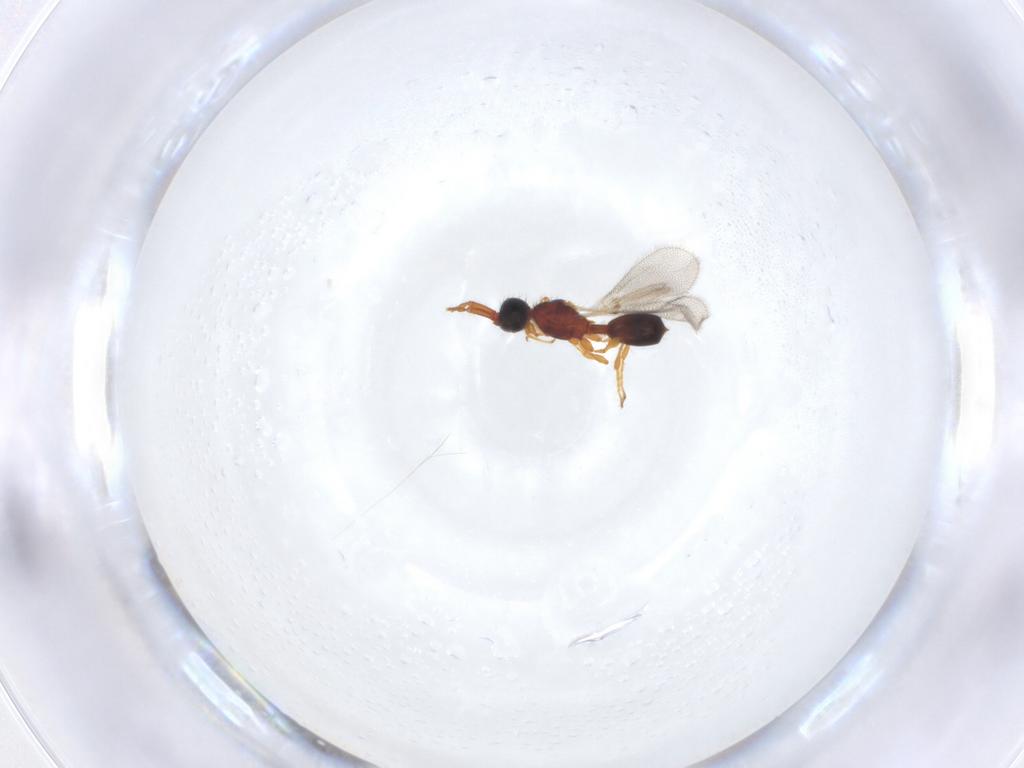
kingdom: Animalia
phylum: Arthropoda
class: Insecta
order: Hymenoptera
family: Diapriidae
